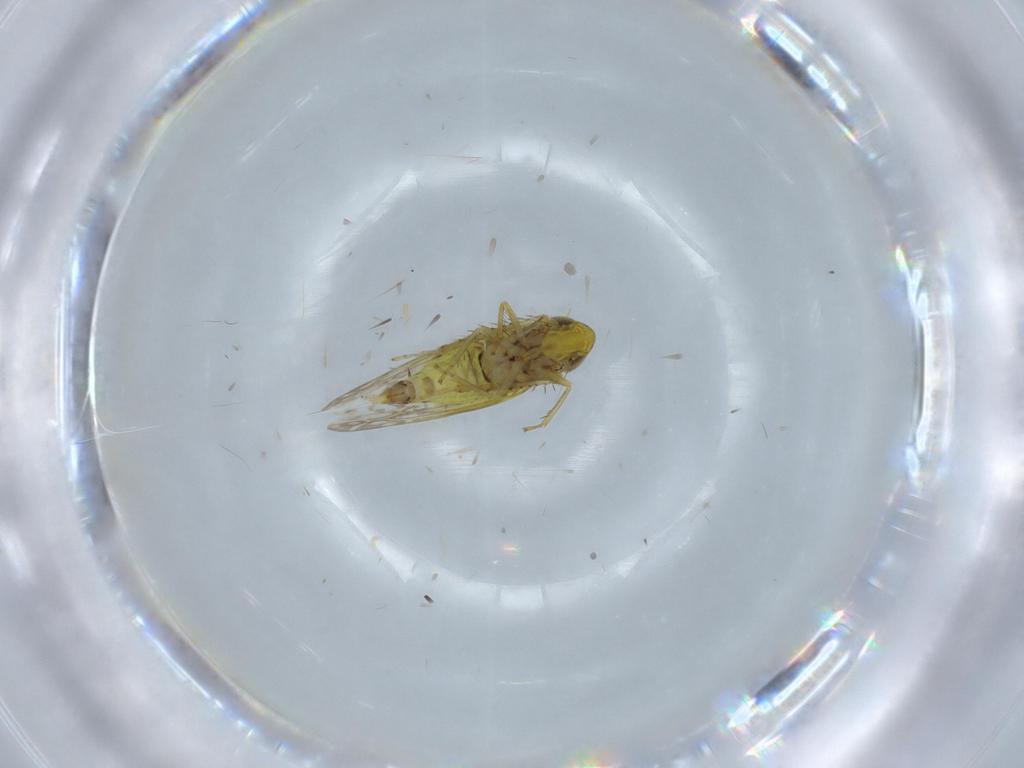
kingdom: Animalia
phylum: Arthropoda
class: Insecta
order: Hemiptera
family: Cicadellidae
